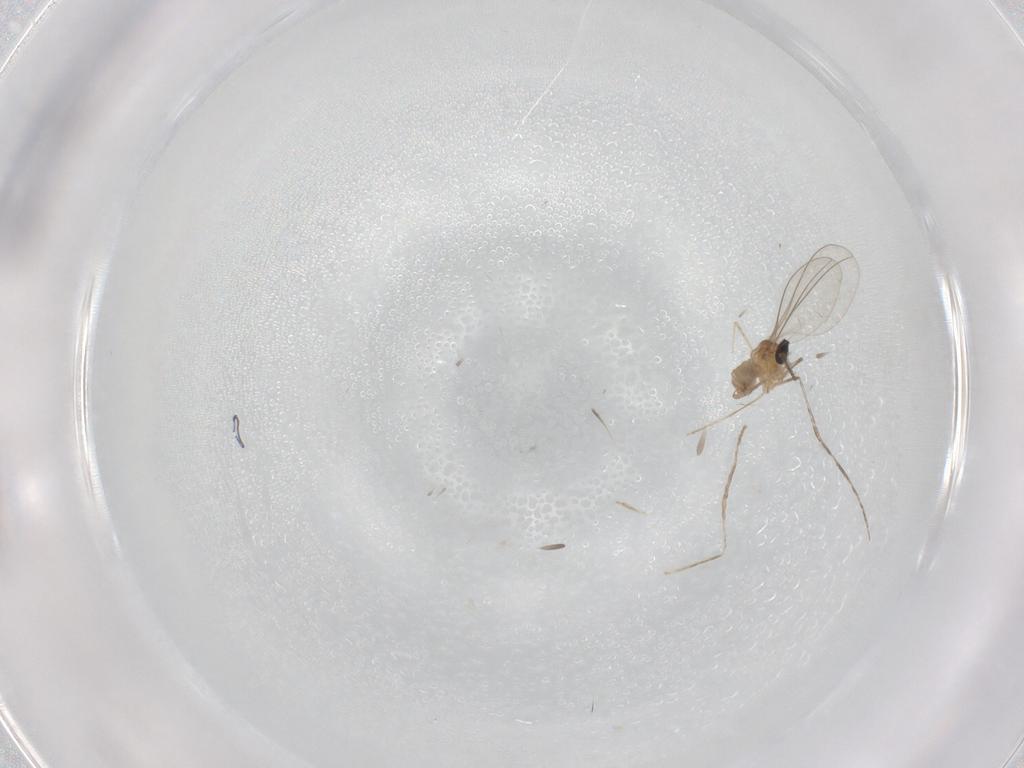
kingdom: Animalia
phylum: Arthropoda
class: Insecta
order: Diptera
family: Cecidomyiidae
